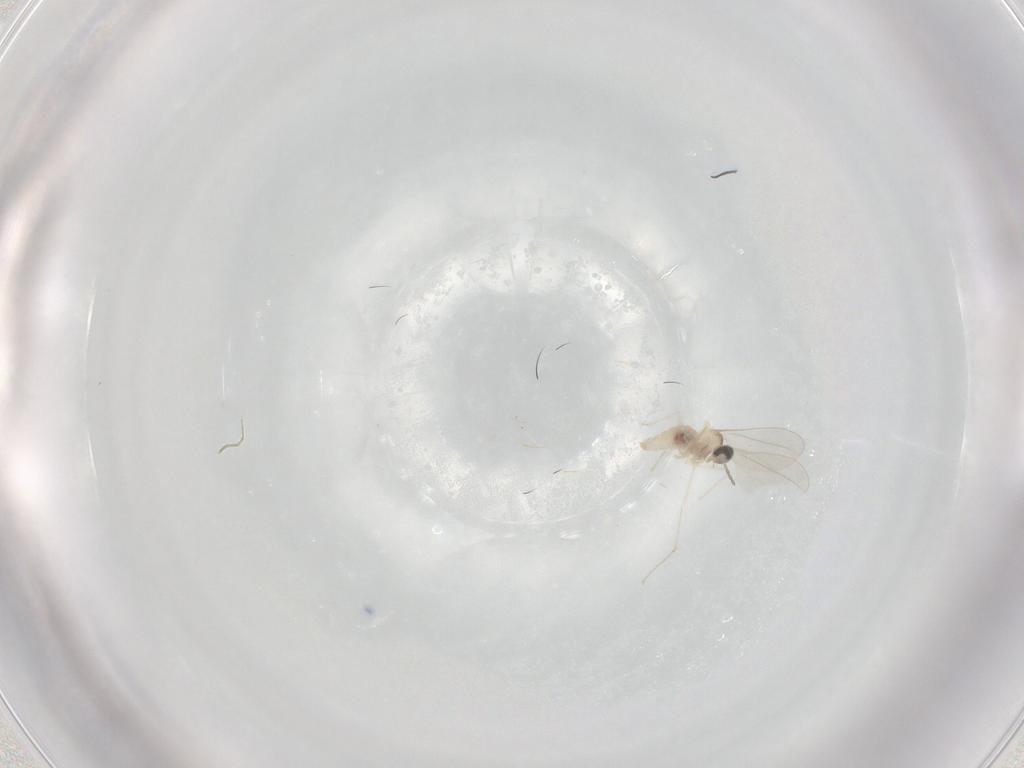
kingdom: Animalia
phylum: Arthropoda
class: Insecta
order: Diptera
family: Cecidomyiidae
